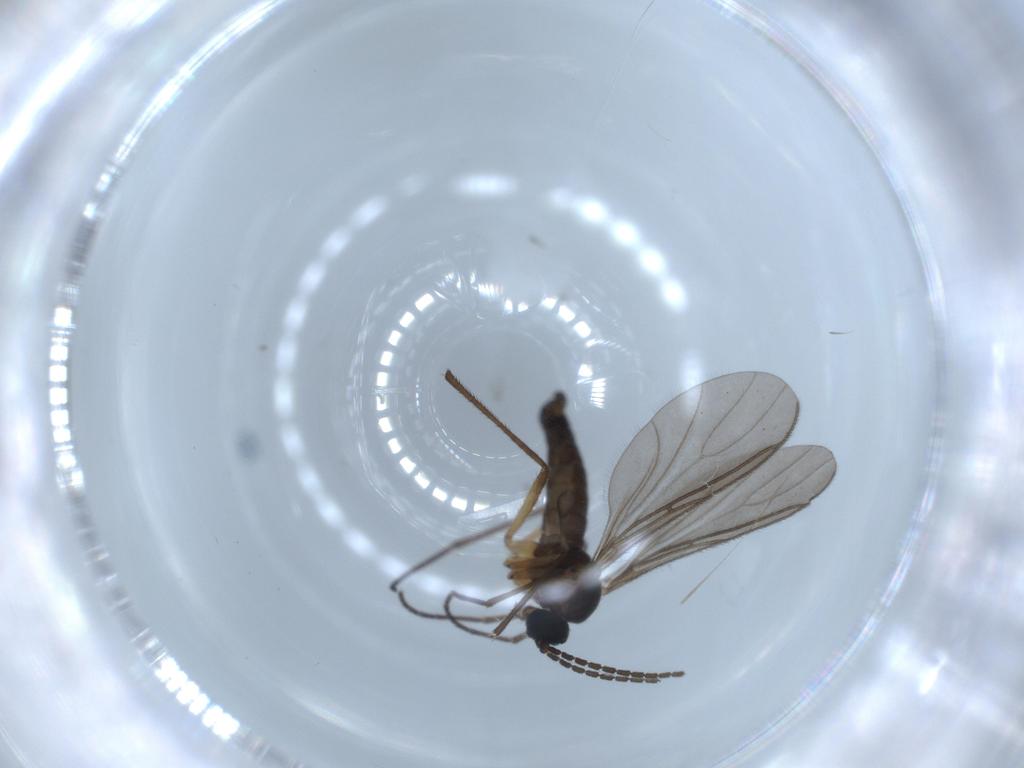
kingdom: Animalia
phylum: Arthropoda
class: Insecta
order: Diptera
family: Sciaridae
